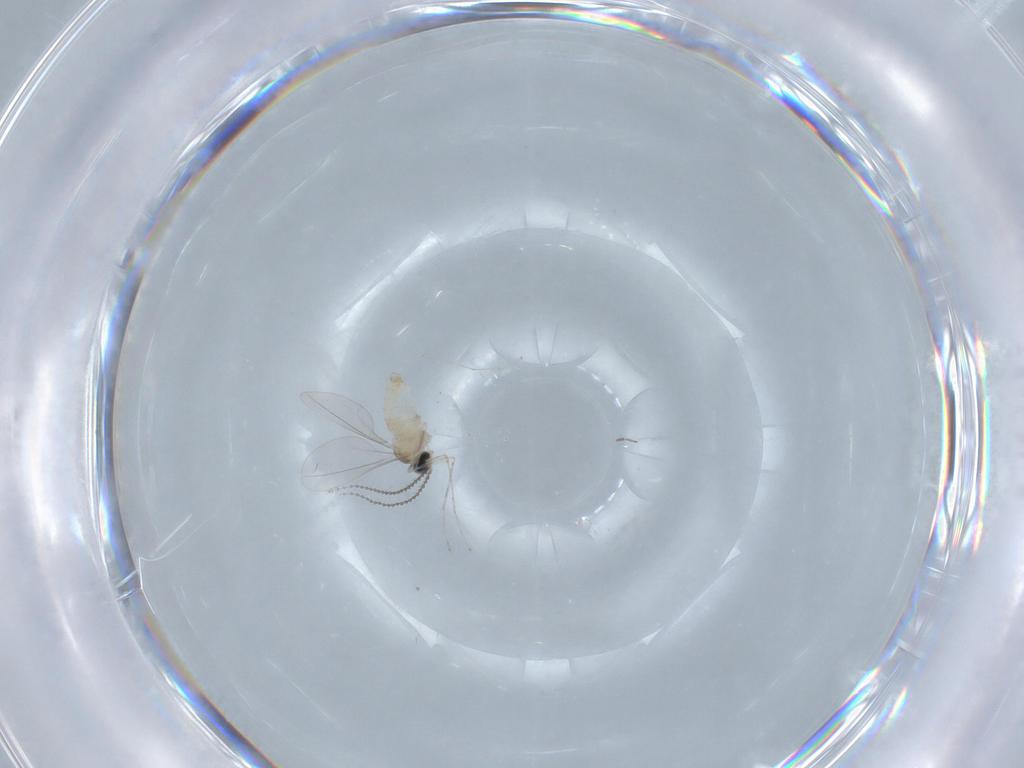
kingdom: Animalia
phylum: Arthropoda
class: Insecta
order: Diptera
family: Cecidomyiidae
